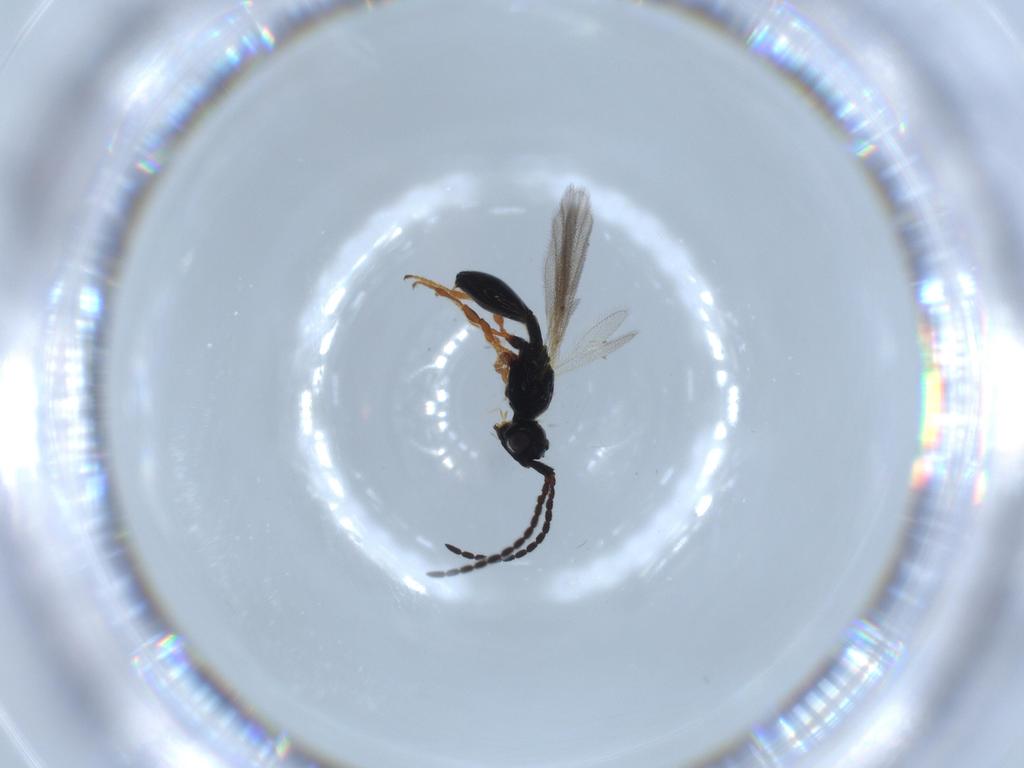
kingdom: Animalia
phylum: Arthropoda
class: Insecta
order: Hymenoptera
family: Diapriidae
